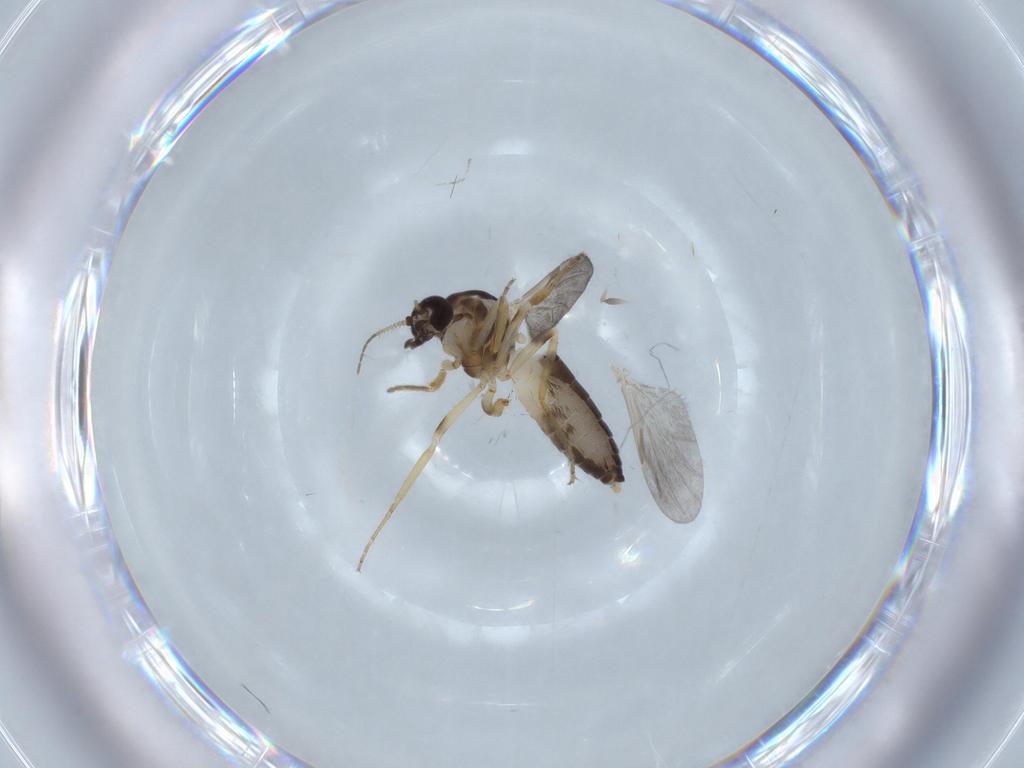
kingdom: Animalia
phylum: Arthropoda
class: Insecta
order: Diptera
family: Ceratopogonidae
